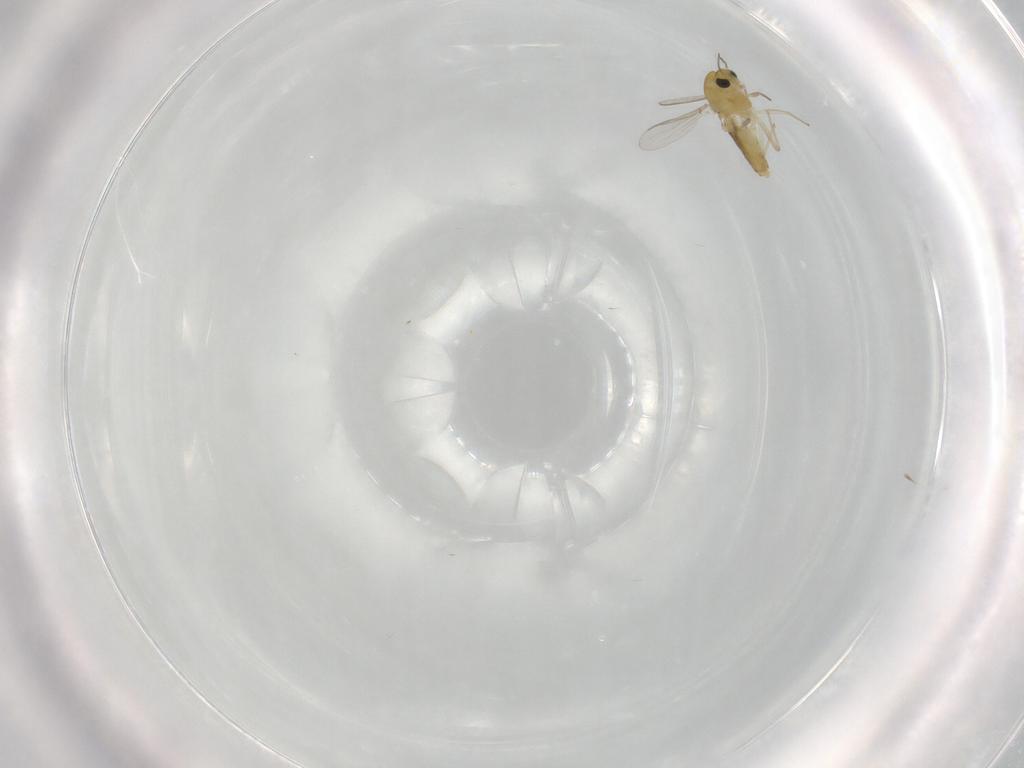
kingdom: Animalia
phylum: Arthropoda
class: Insecta
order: Diptera
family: Chironomidae
